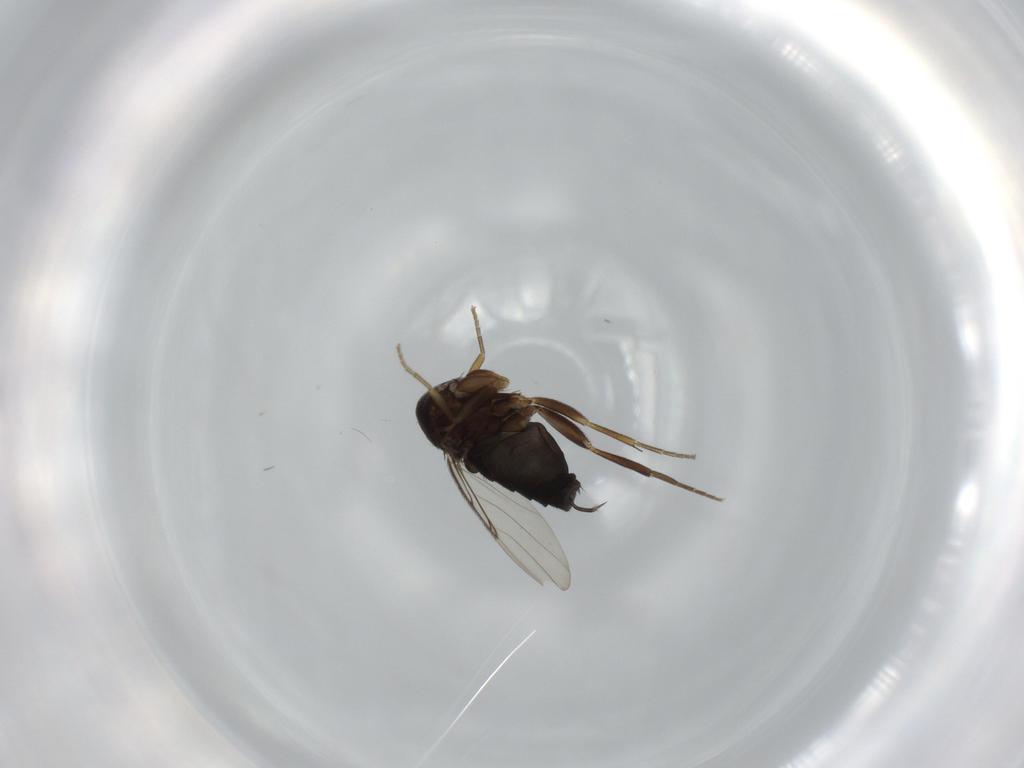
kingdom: Animalia
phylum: Arthropoda
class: Insecta
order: Diptera
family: Phoridae
